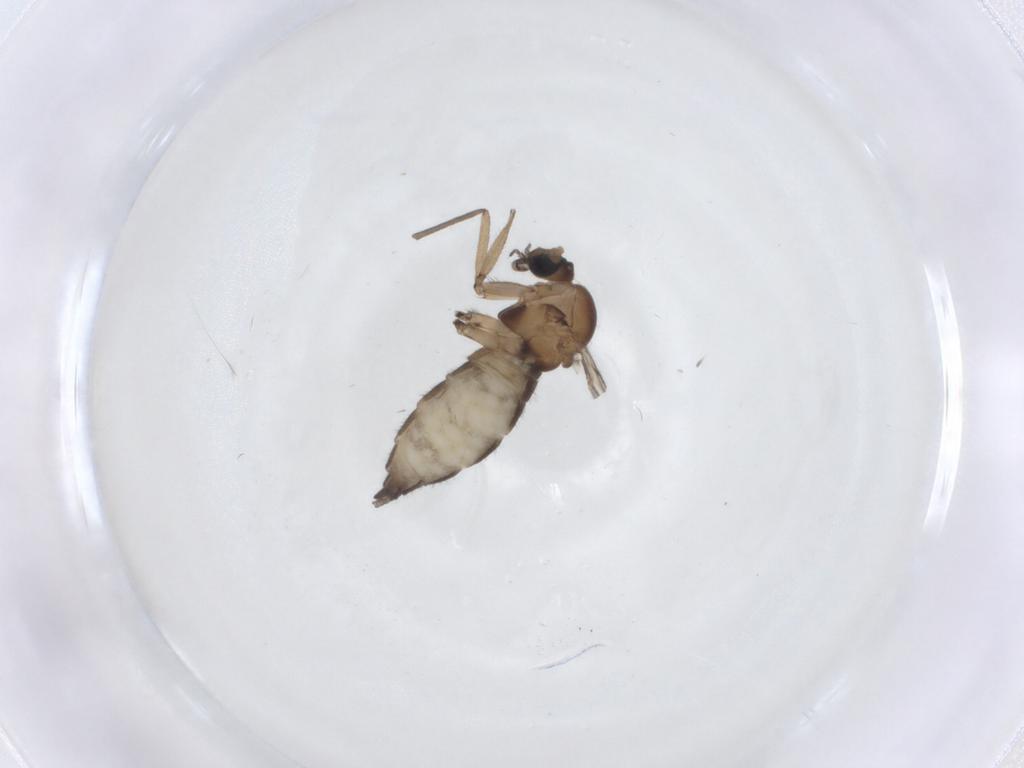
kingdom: Animalia
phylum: Arthropoda
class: Insecta
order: Diptera
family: Sciaridae
